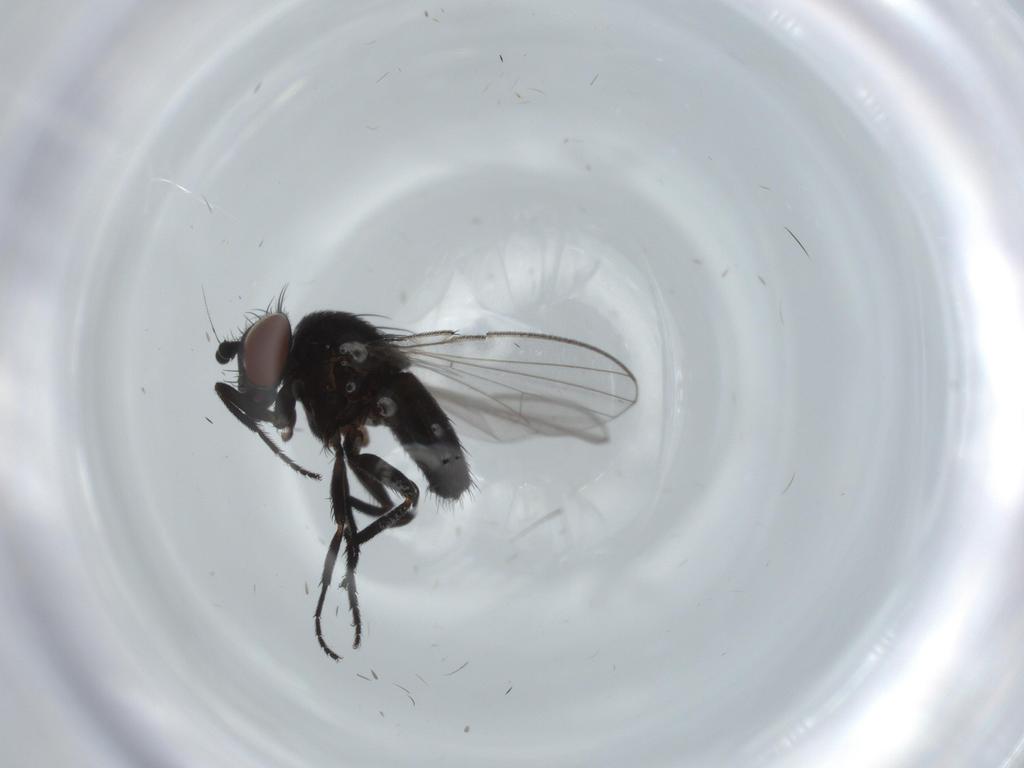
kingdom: Animalia
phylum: Arthropoda
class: Insecta
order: Diptera
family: Milichiidae
